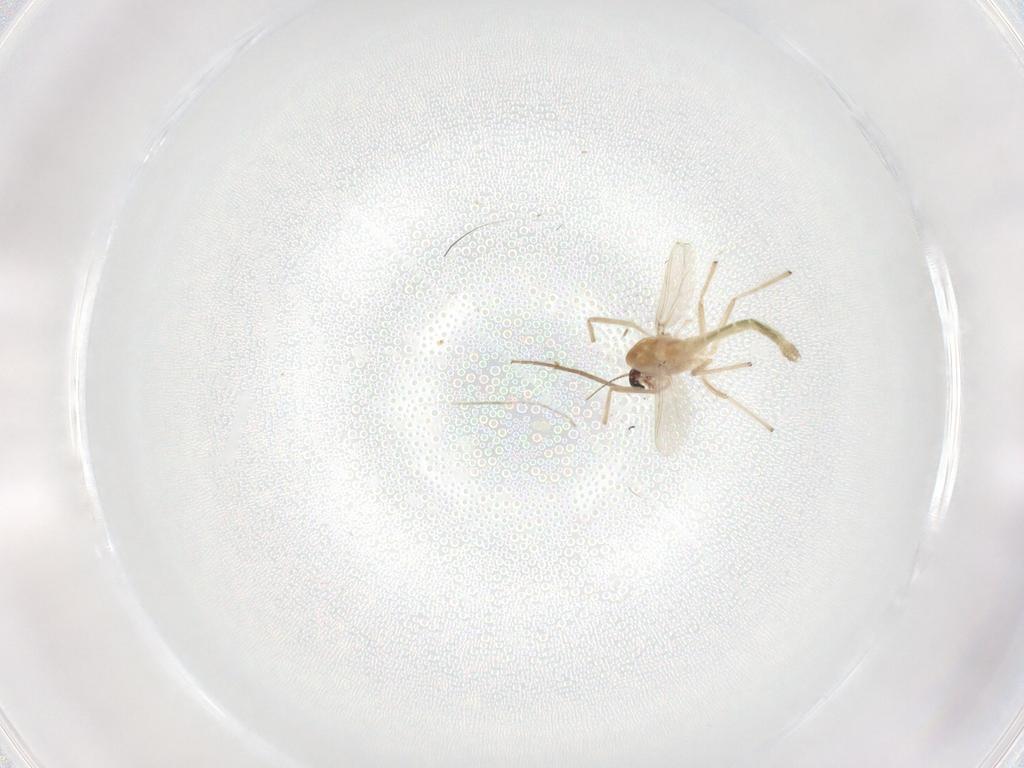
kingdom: Animalia
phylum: Arthropoda
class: Insecta
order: Diptera
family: Chironomidae
